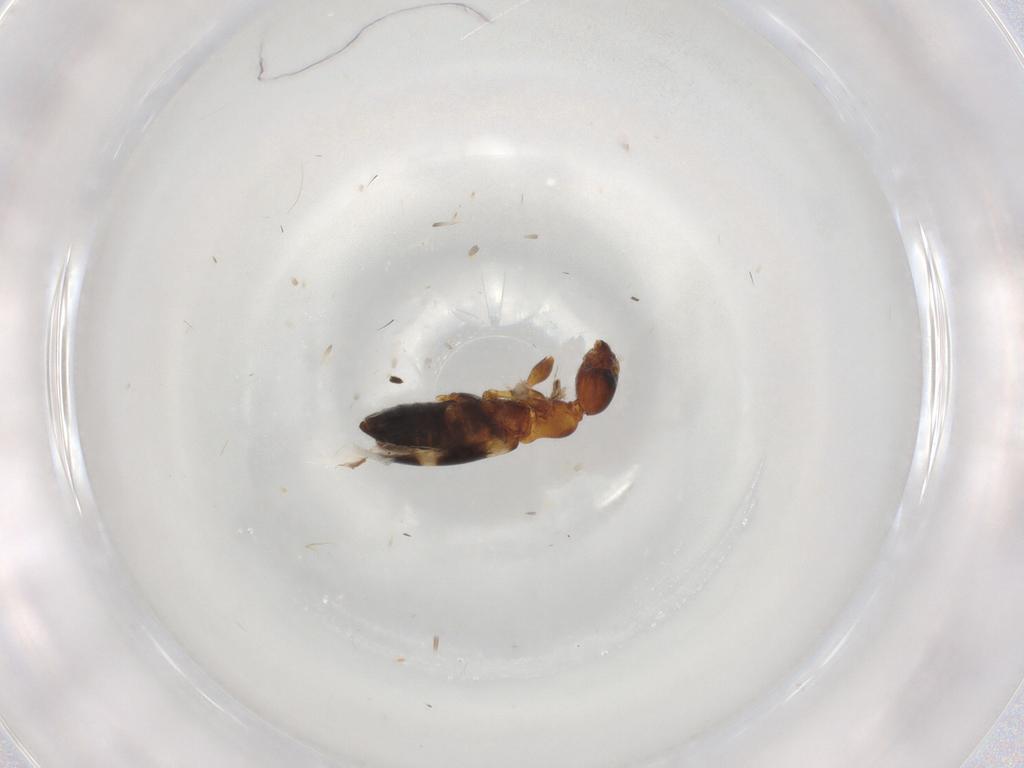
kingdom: Animalia
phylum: Arthropoda
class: Insecta
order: Coleoptera
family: Anthicidae
